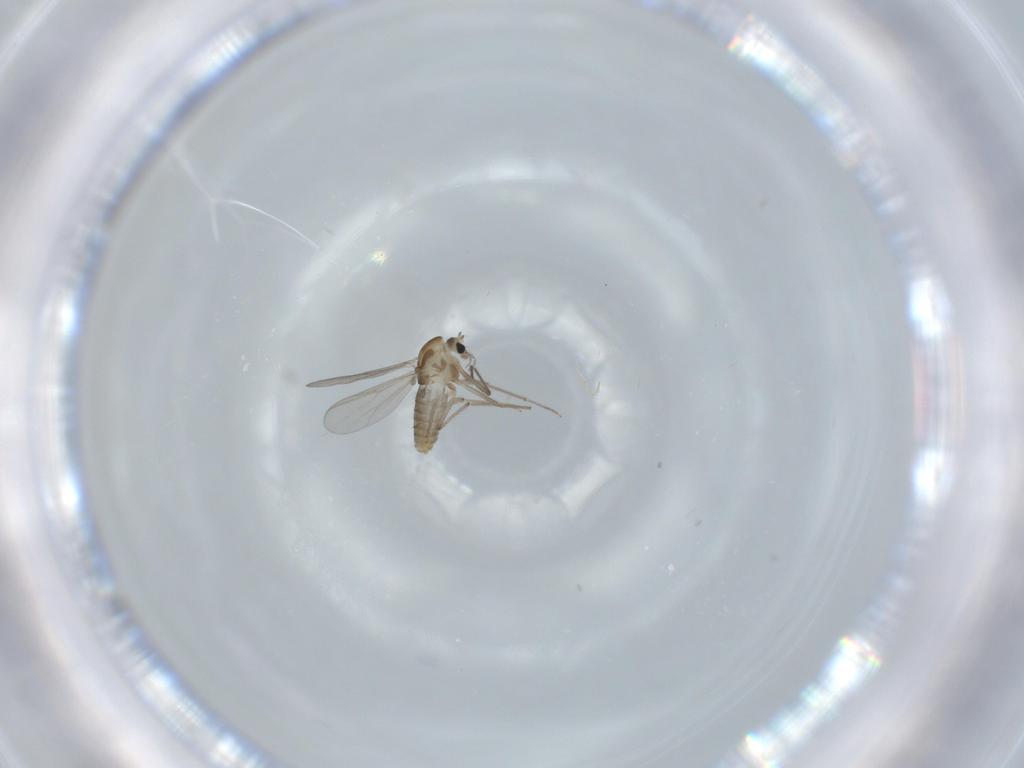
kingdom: Animalia
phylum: Arthropoda
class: Insecta
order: Diptera
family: Chironomidae
